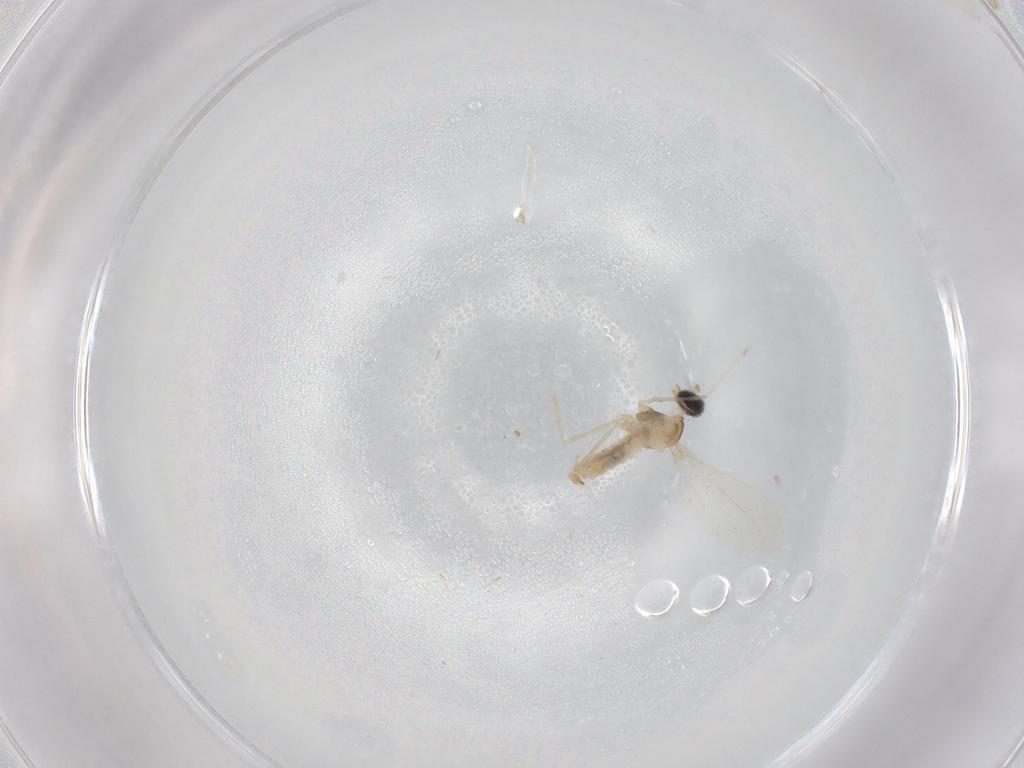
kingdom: Animalia
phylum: Arthropoda
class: Insecta
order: Diptera
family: Cecidomyiidae
